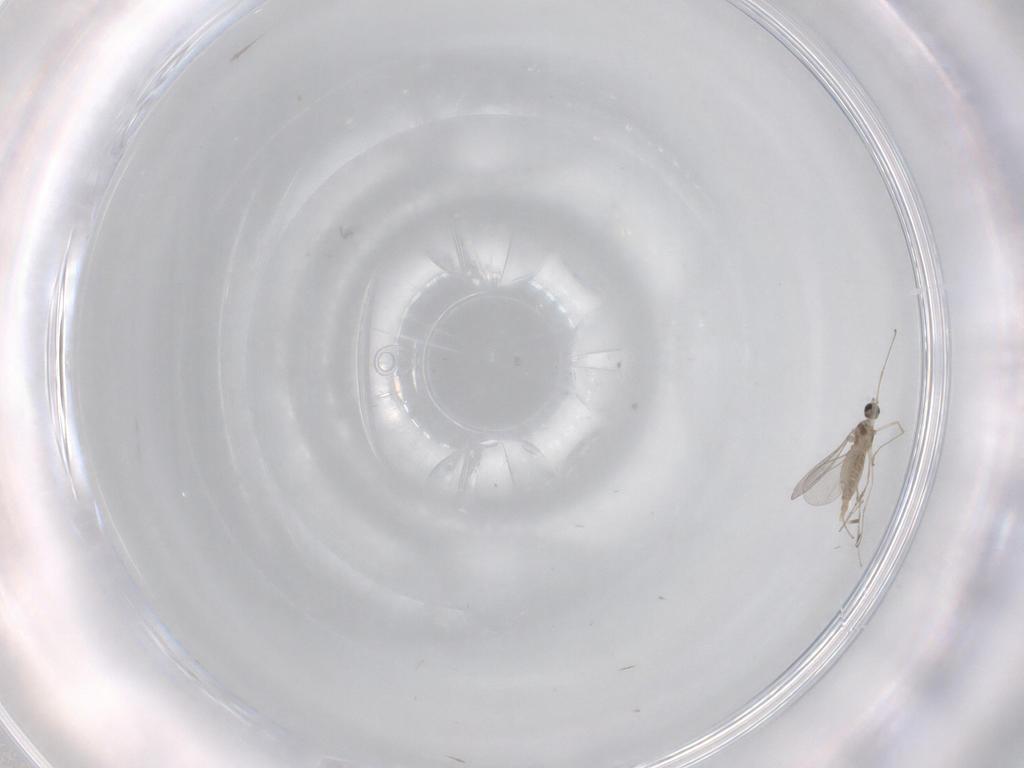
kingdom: Animalia
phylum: Arthropoda
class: Insecta
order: Diptera
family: Cecidomyiidae
